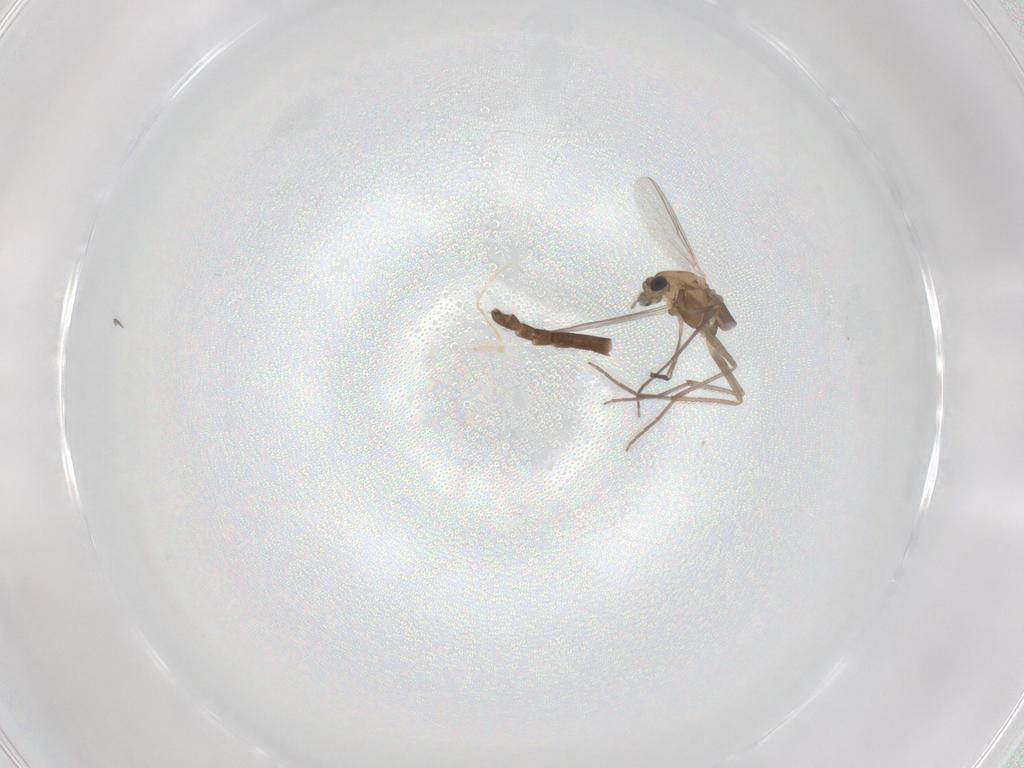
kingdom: Animalia
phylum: Arthropoda
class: Insecta
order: Diptera
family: Chironomidae
